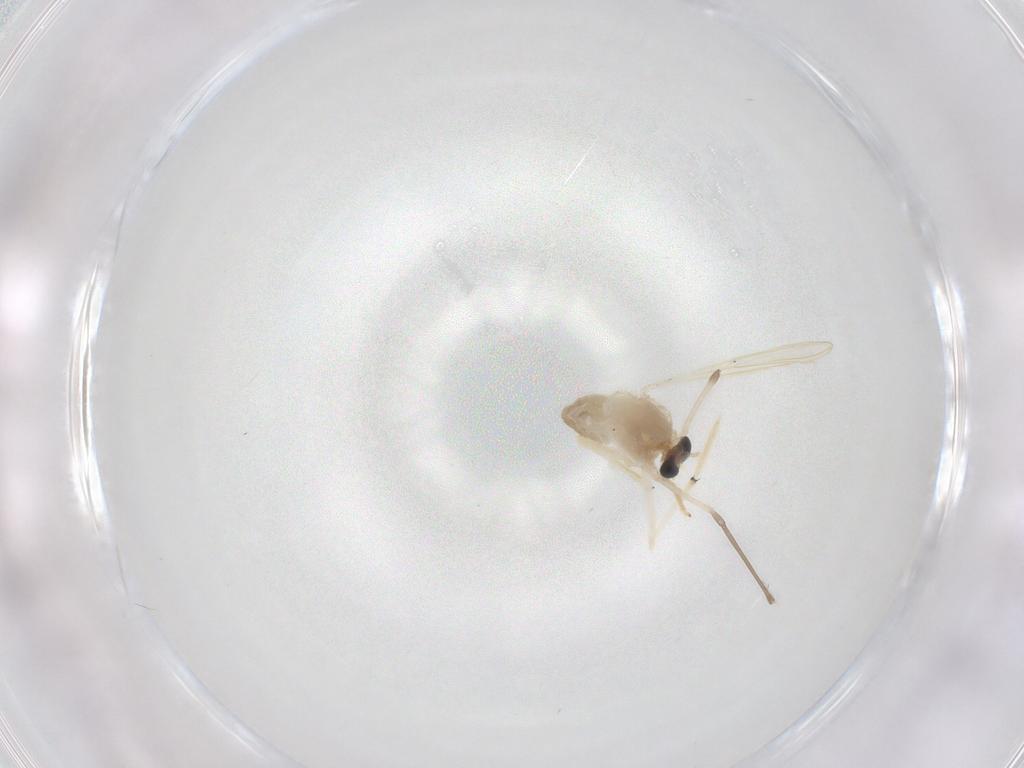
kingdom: Animalia
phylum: Arthropoda
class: Insecta
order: Diptera
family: Chironomidae
